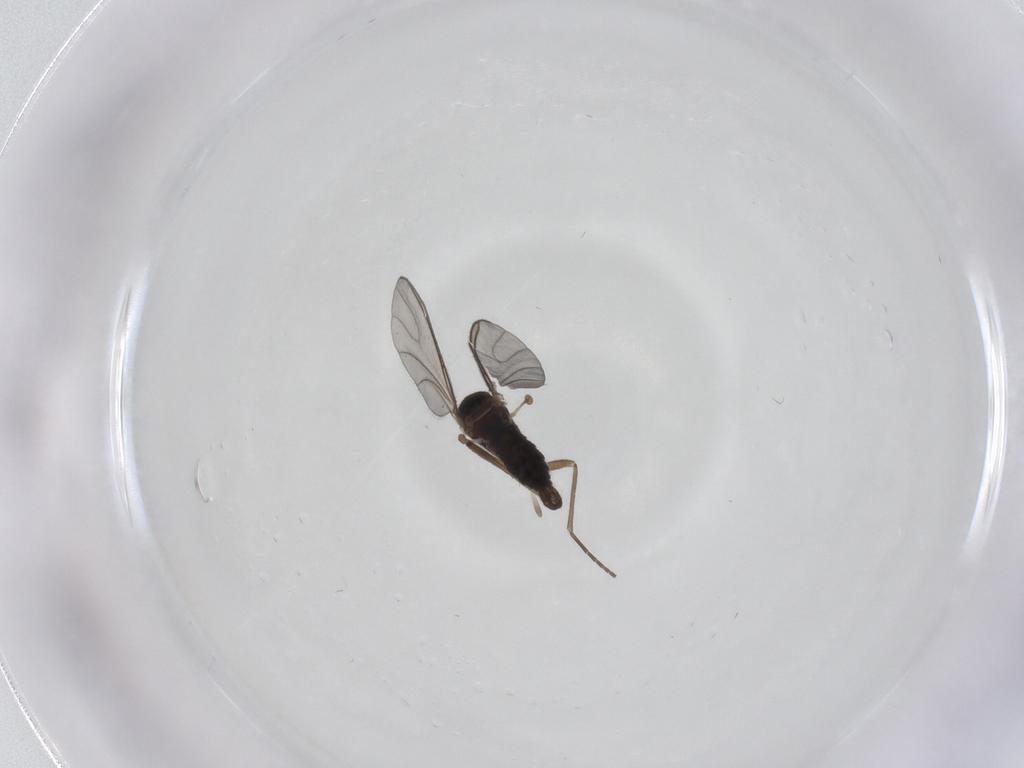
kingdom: Animalia
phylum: Arthropoda
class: Insecta
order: Diptera
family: Sciaridae
